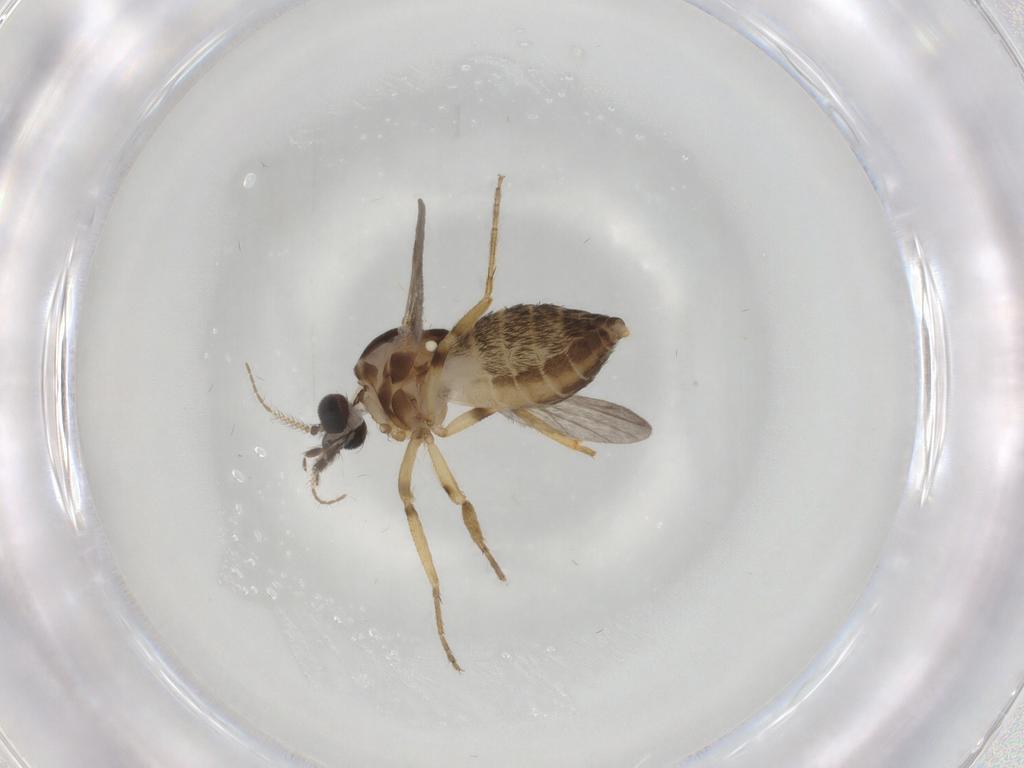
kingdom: Animalia
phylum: Arthropoda
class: Insecta
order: Diptera
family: Ceratopogonidae
